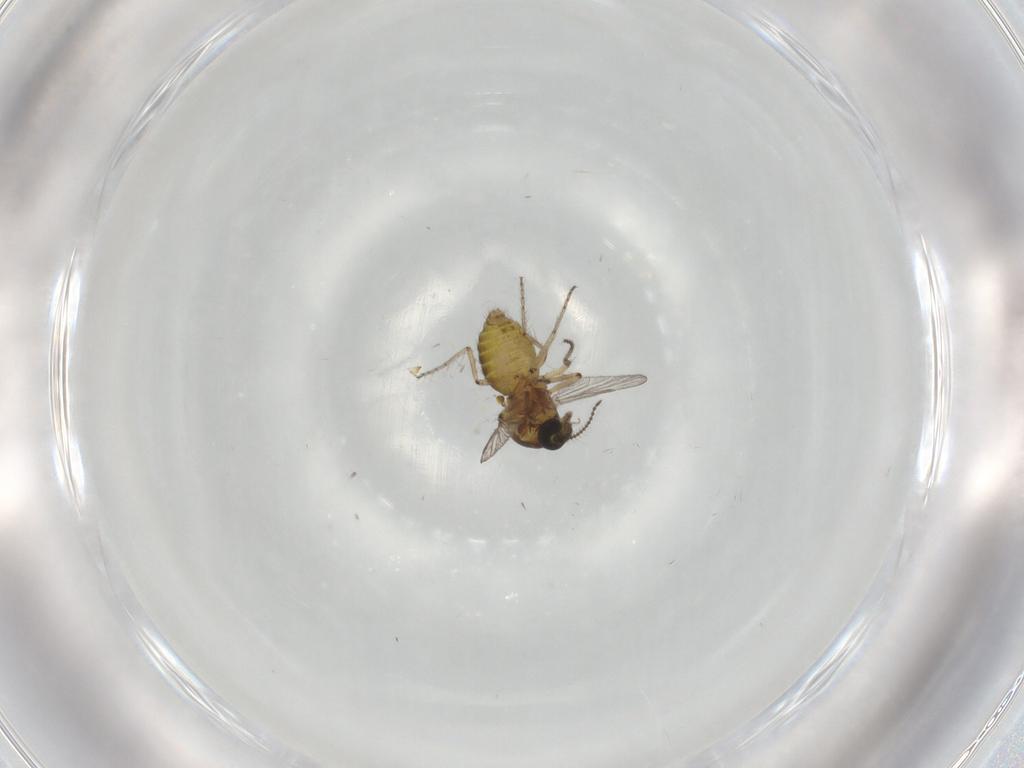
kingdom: Animalia
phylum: Arthropoda
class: Insecta
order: Diptera
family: Ceratopogonidae
